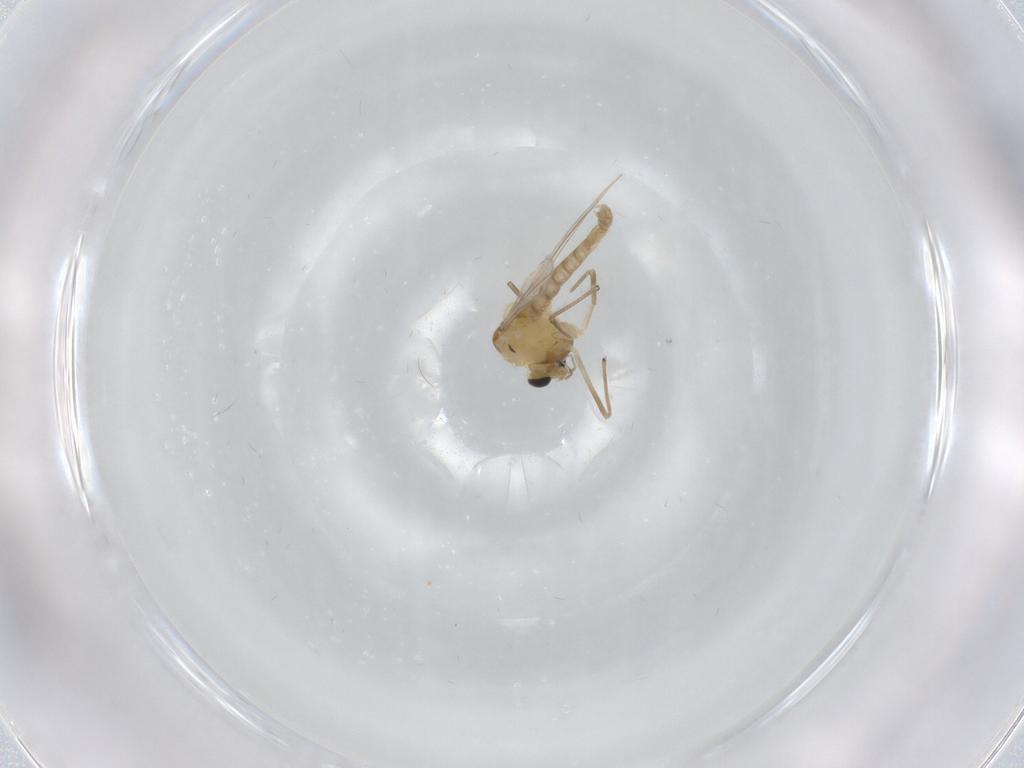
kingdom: Animalia
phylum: Arthropoda
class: Insecta
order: Diptera
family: Chironomidae
